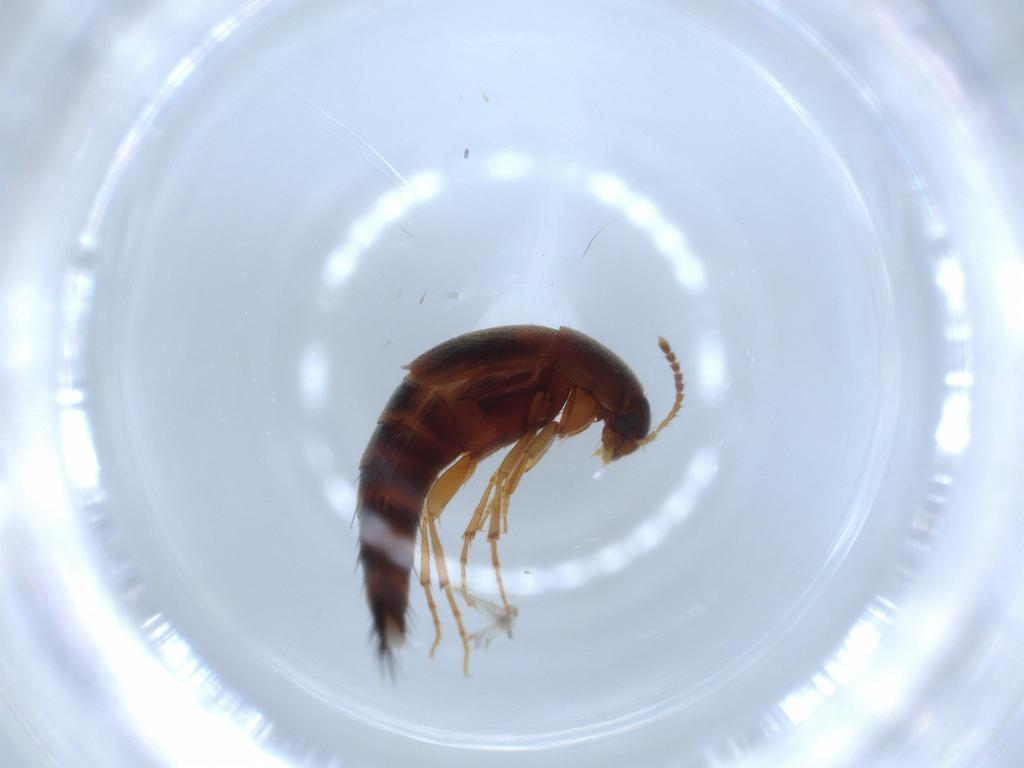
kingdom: Animalia
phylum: Arthropoda
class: Insecta
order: Coleoptera
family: Staphylinidae
